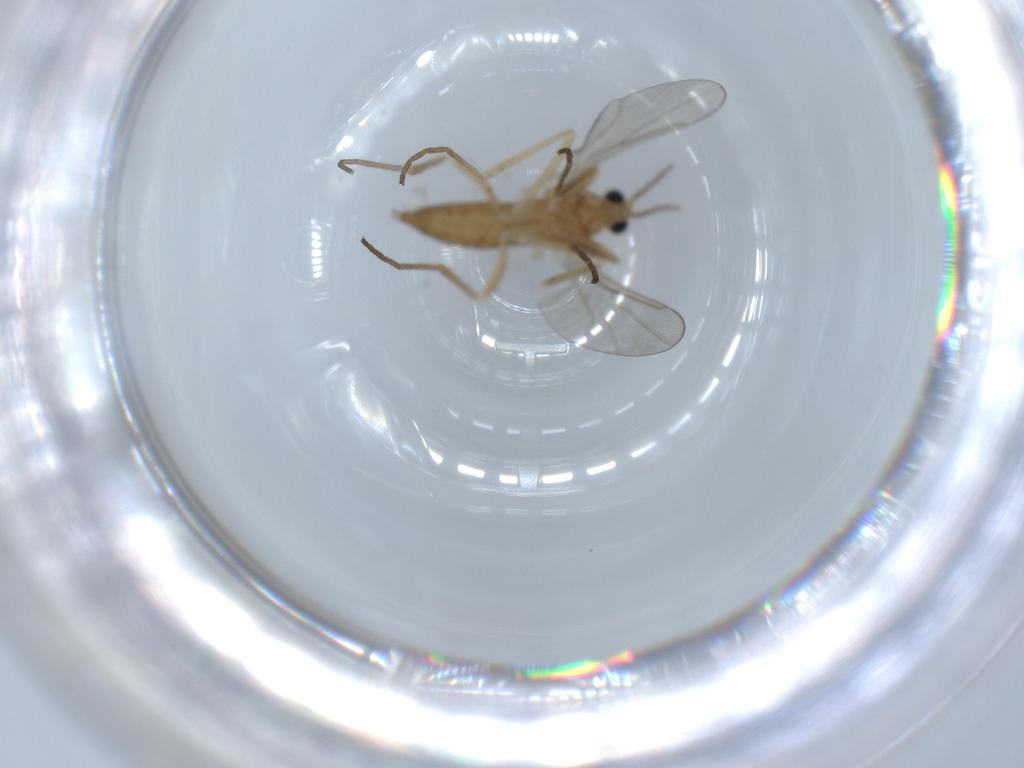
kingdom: Animalia
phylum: Arthropoda
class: Insecta
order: Diptera
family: Cecidomyiidae
